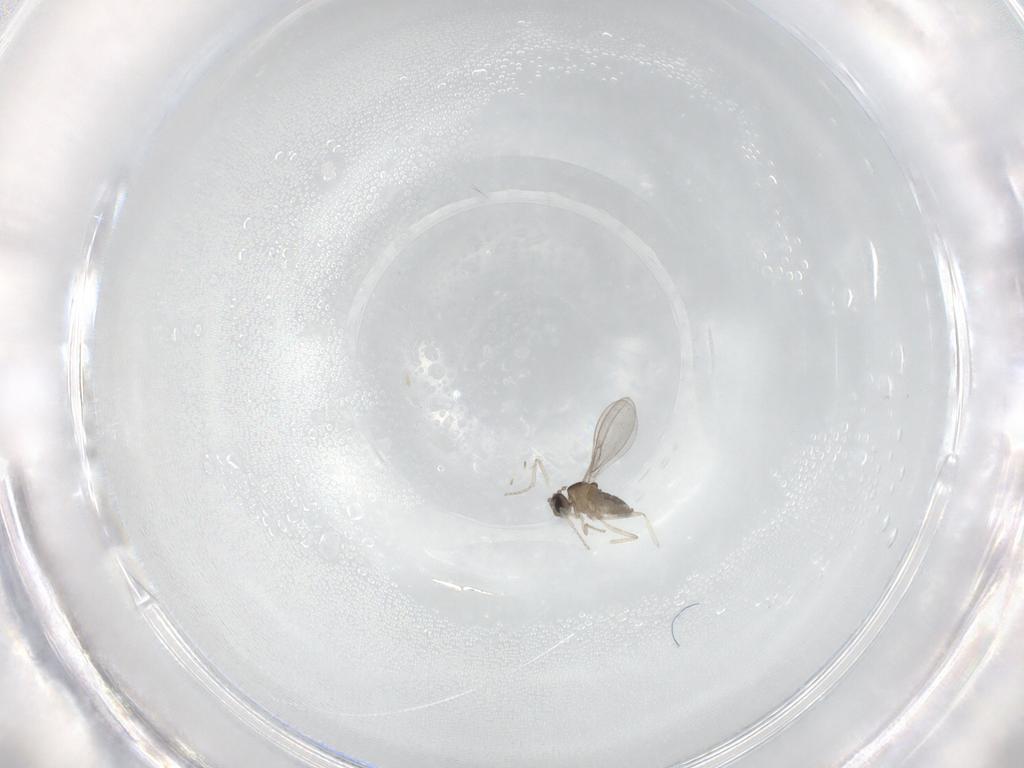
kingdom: Animalia
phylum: Arthropoda
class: Insecta
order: Diptera
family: Cecidomyiidae
